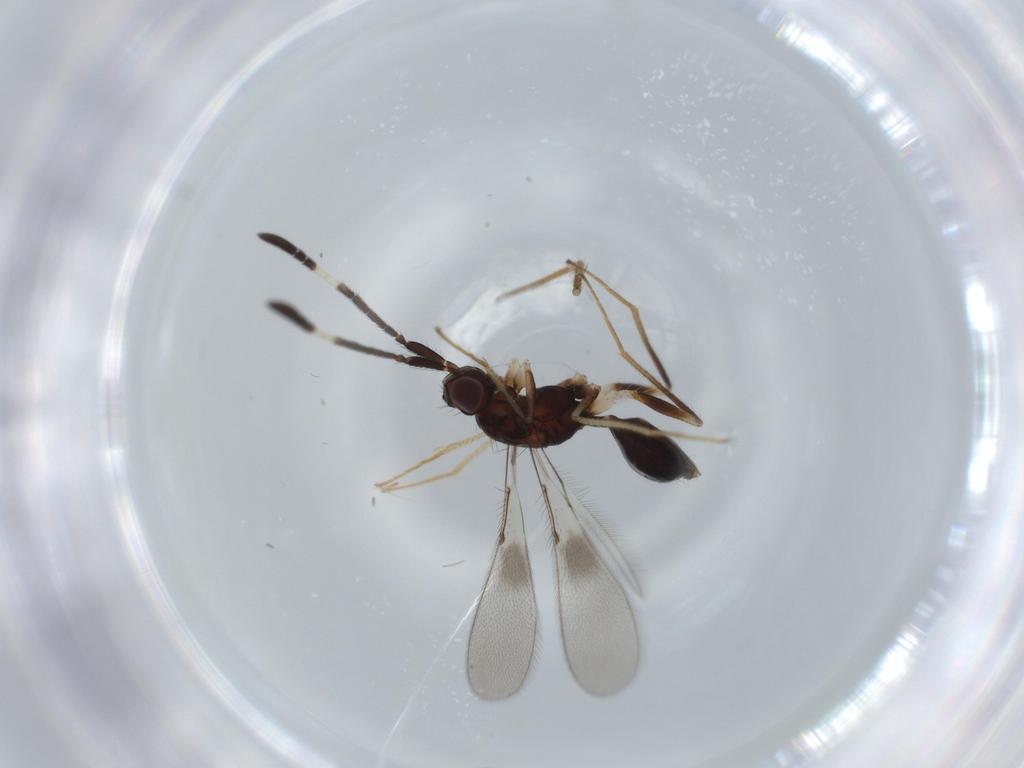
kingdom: Animalia
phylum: Arthropoda
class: Insecta
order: Hymenoptera
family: Mymaridae
